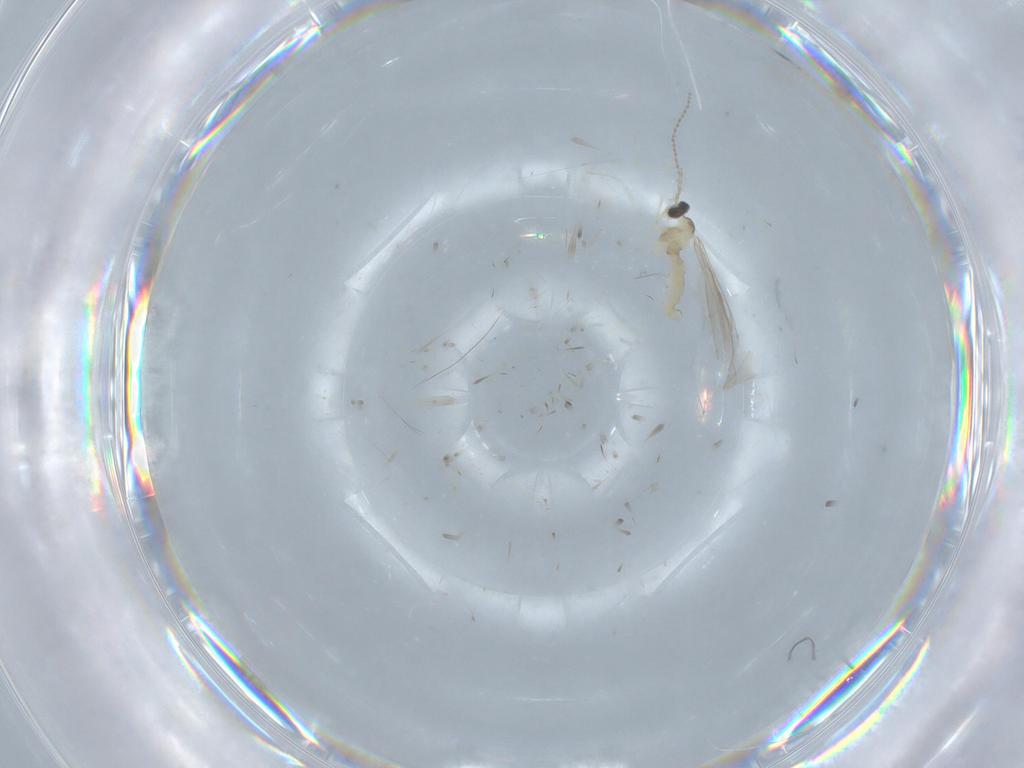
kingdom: Animalia
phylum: Arthropoda
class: Insecta
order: Diptera
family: Cecidomyiidae
